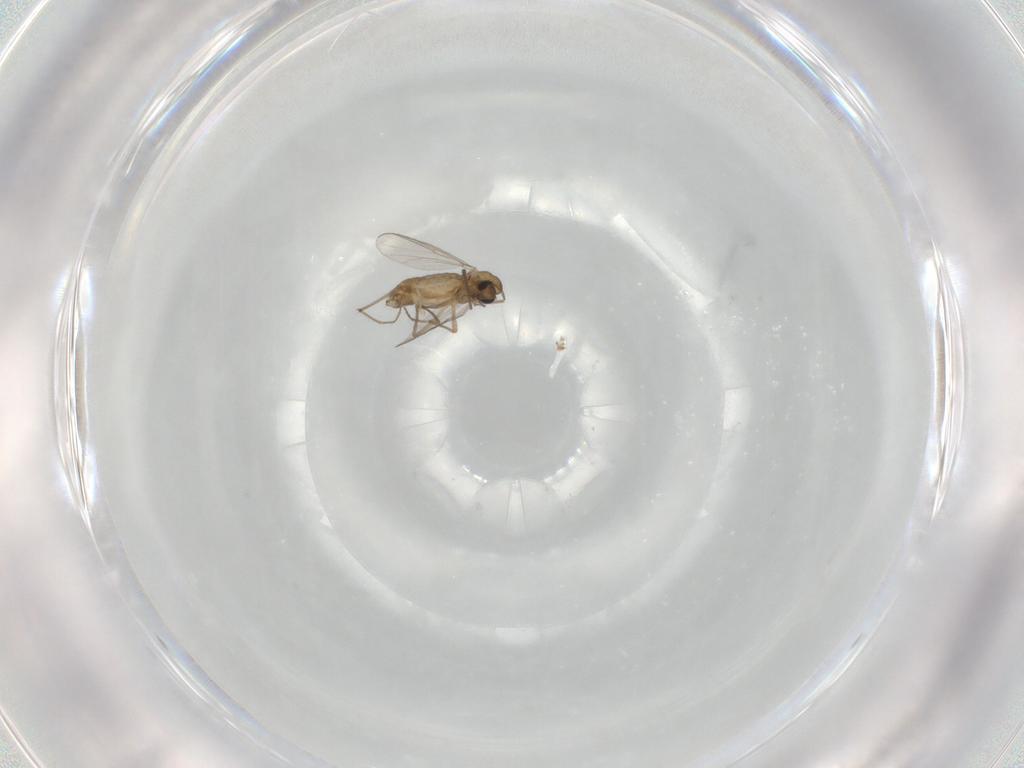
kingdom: Animalia
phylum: Arthropoda
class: Insecta
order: Diptera
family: Chironomidae
